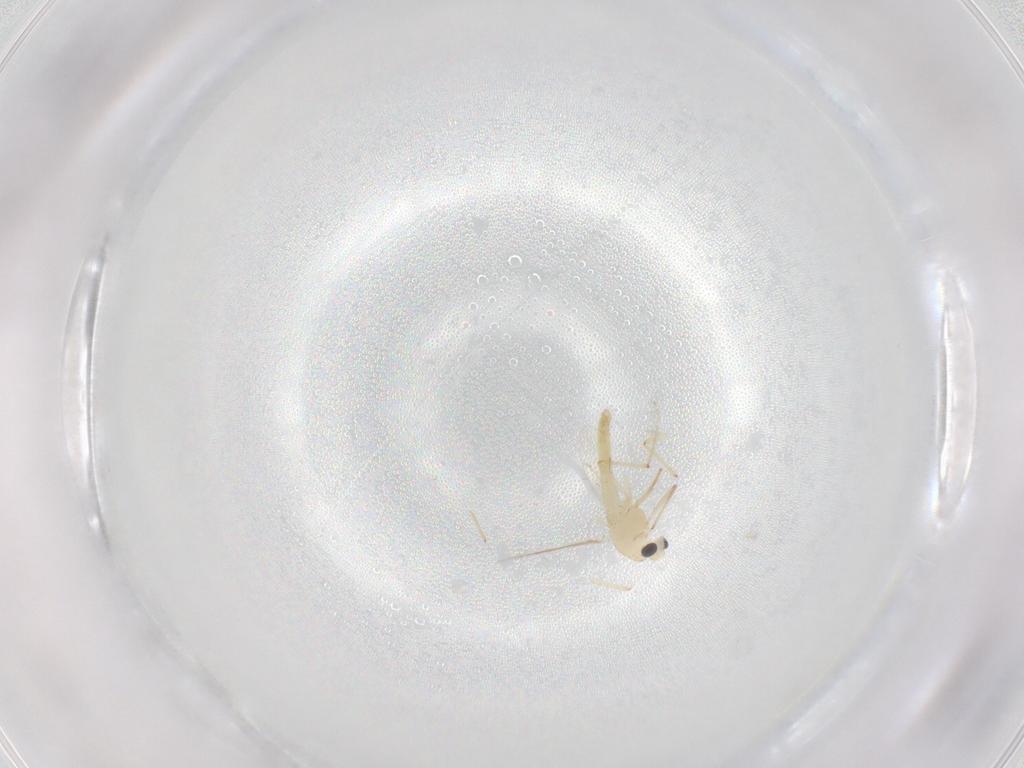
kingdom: Animalia
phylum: Arthropoda
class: Insecta
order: Diptera
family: Chironomidae
